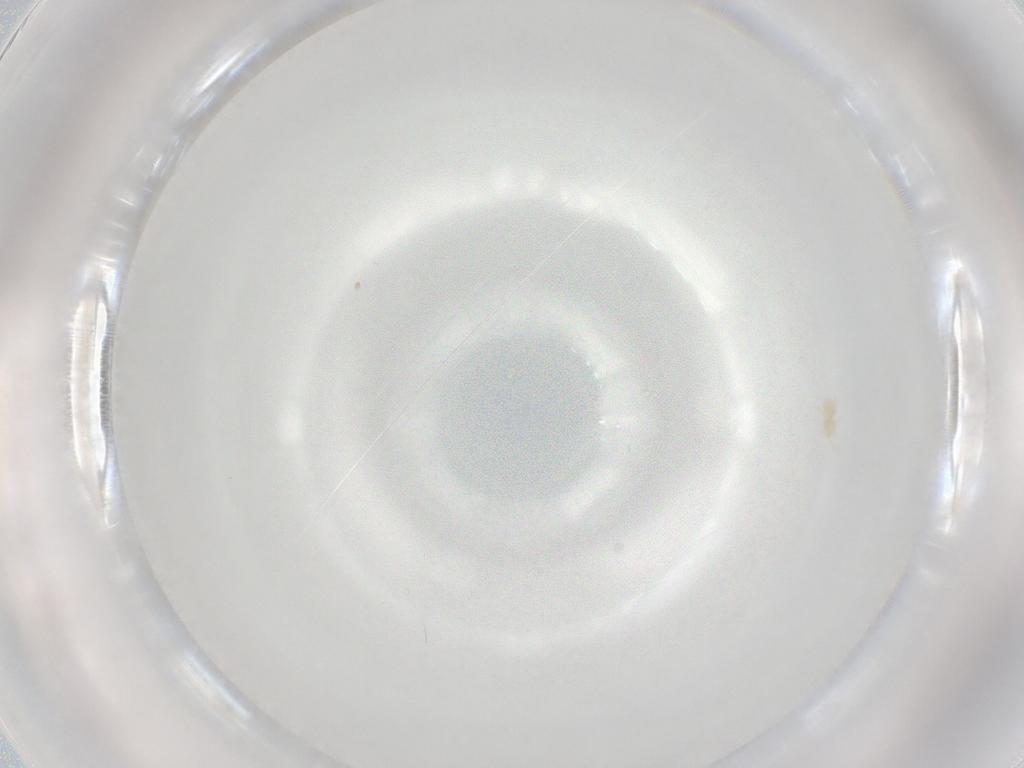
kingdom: Animalia
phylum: Arthropoda
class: Arachnida
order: Trombidiformes
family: Eupodidae
